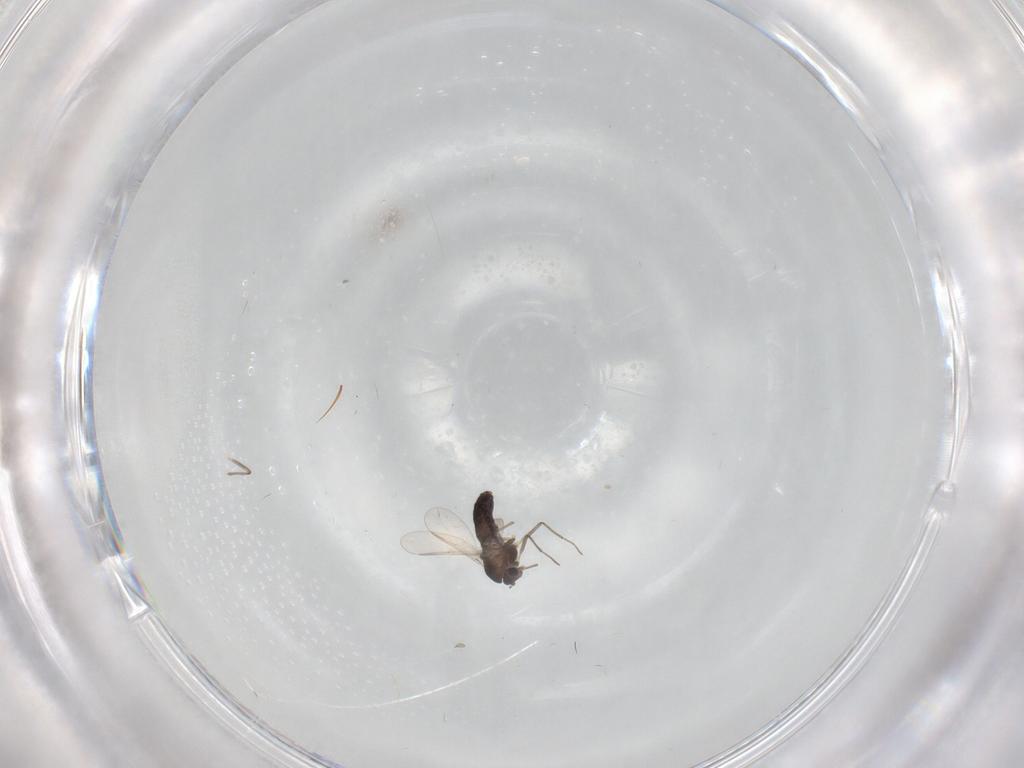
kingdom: Animalia
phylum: Arthropoda
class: Insecta
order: Diptera
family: Chironomidae
